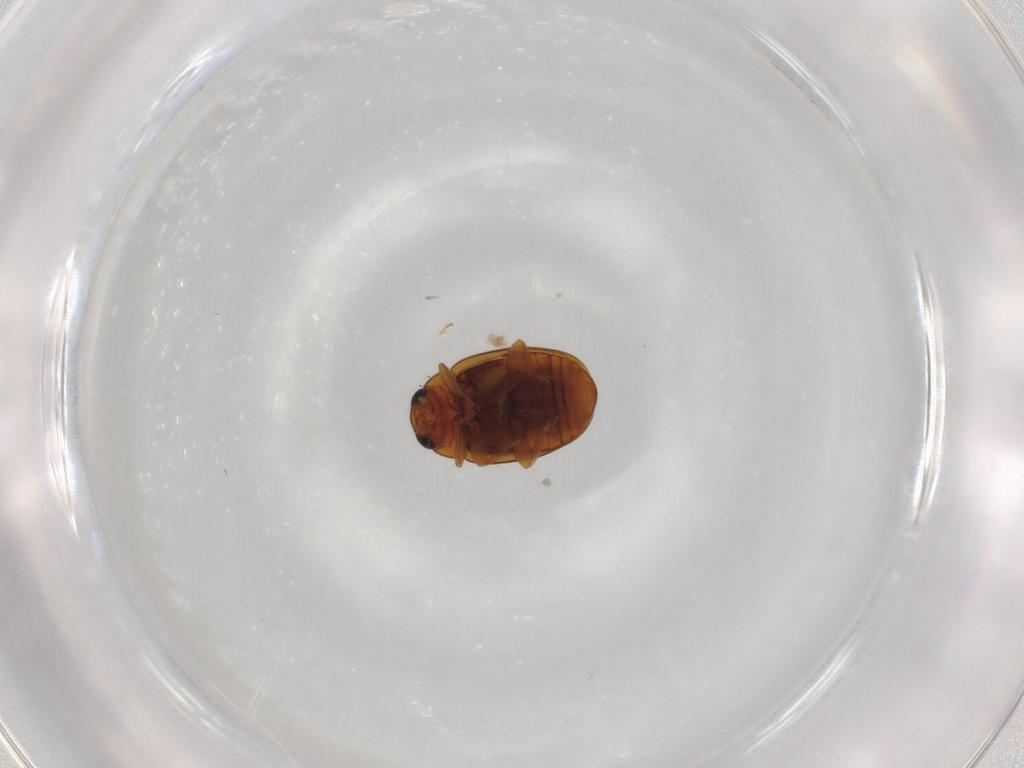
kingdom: Animalia
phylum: Arthropoda
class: Insecta
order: Coleoptera
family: Coccinellidae
